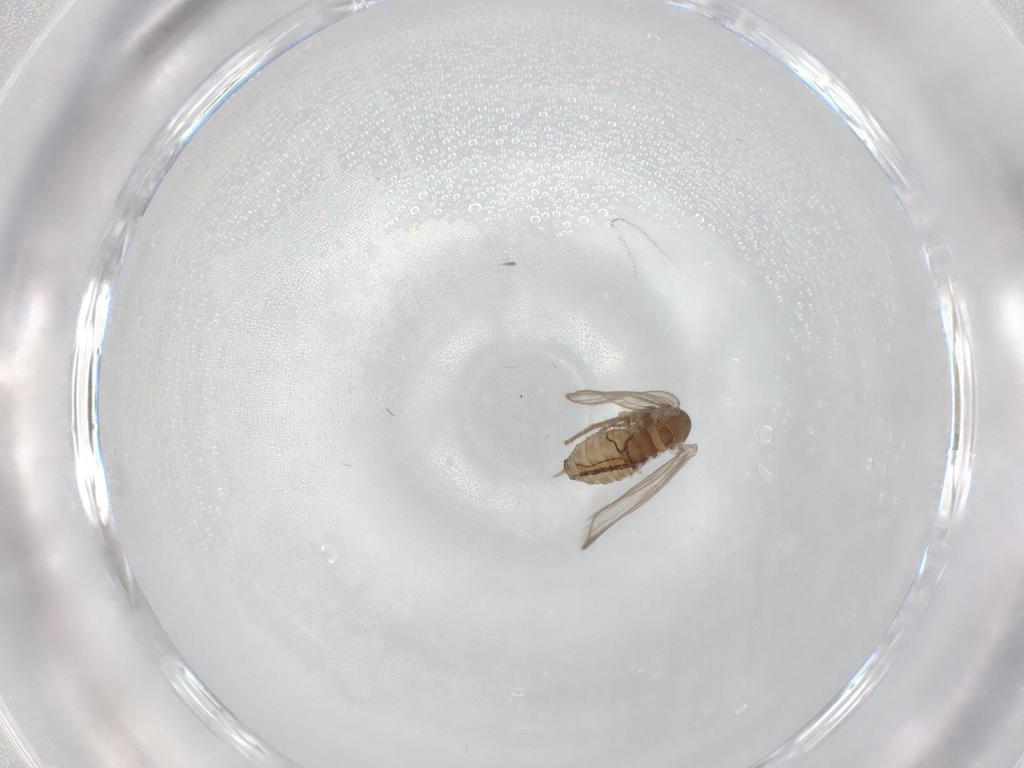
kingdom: Animalia
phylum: Arthropoda
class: Insecta
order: Diptera
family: Psychodidae
